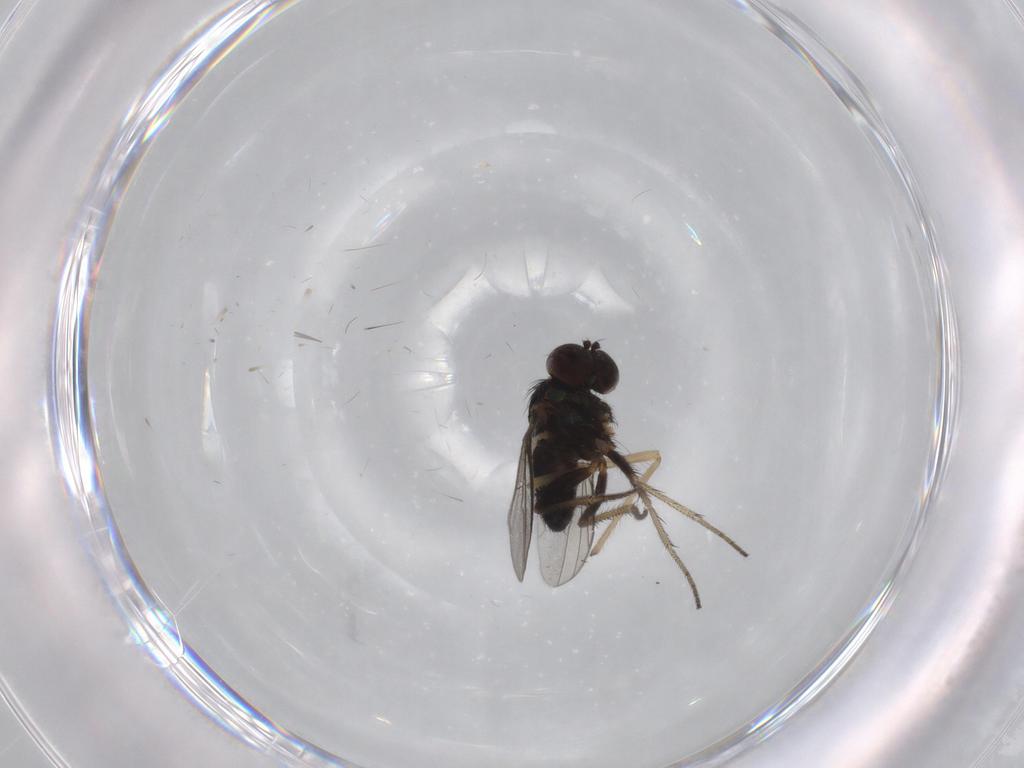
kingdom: Animalia
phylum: Arthropoda
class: Insecta
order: Diptera
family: Dolichopodidae
